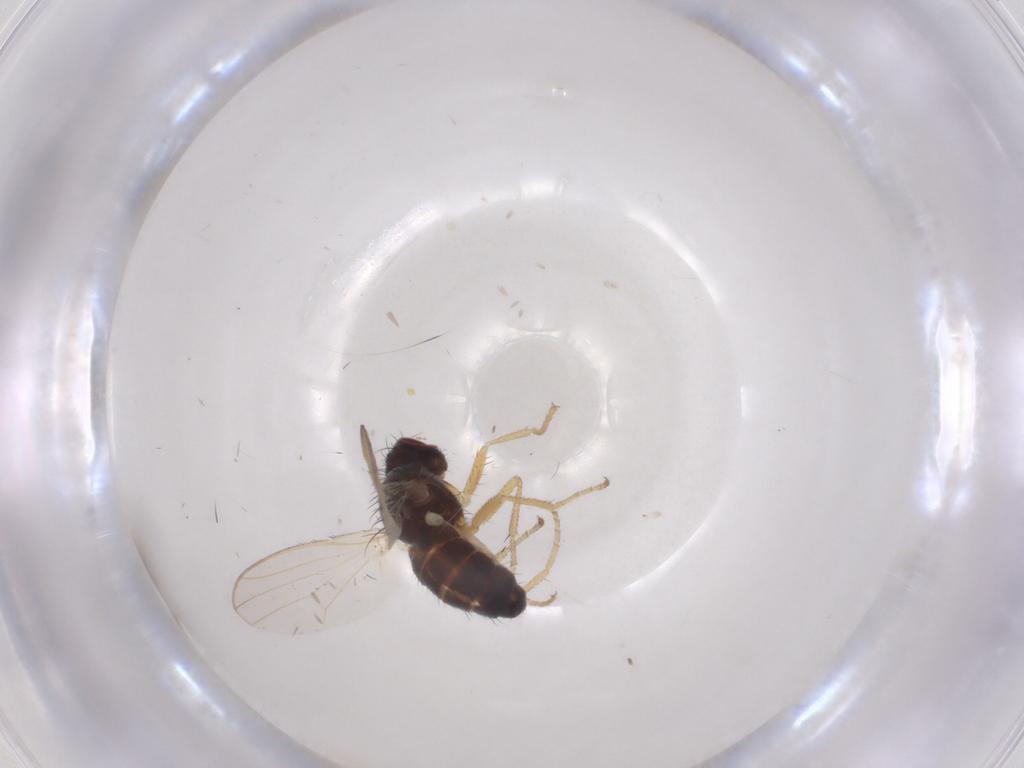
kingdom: Animalia
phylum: Arthropoda
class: Insecta
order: Diptera
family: Heleomyzidae
